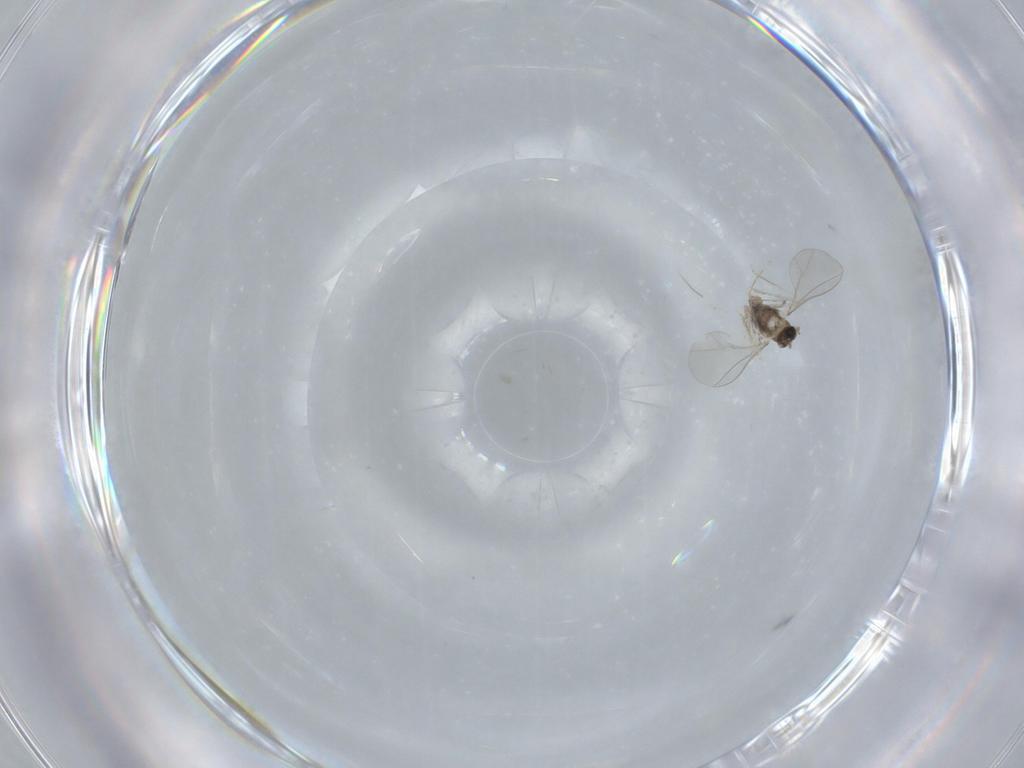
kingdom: Animalia
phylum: Arthropoda
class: Insecta
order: Diptera
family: Cecidomyiidae
